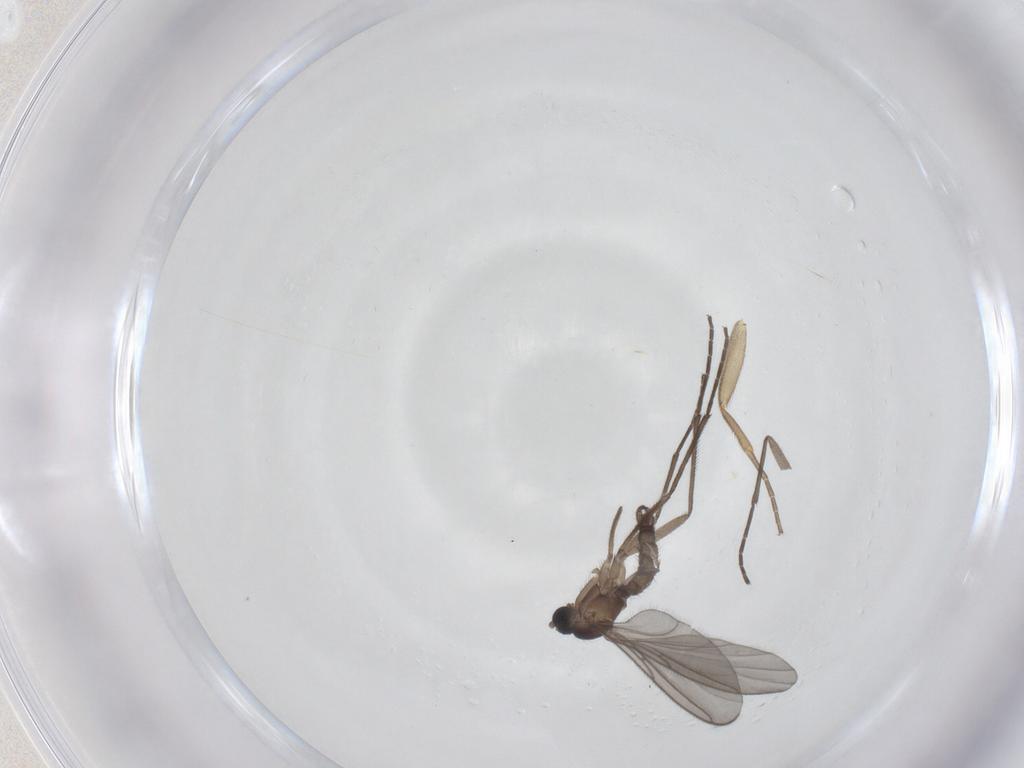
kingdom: Animalia
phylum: Arthropoda
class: Insecta
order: Diptera
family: Sciaridae
